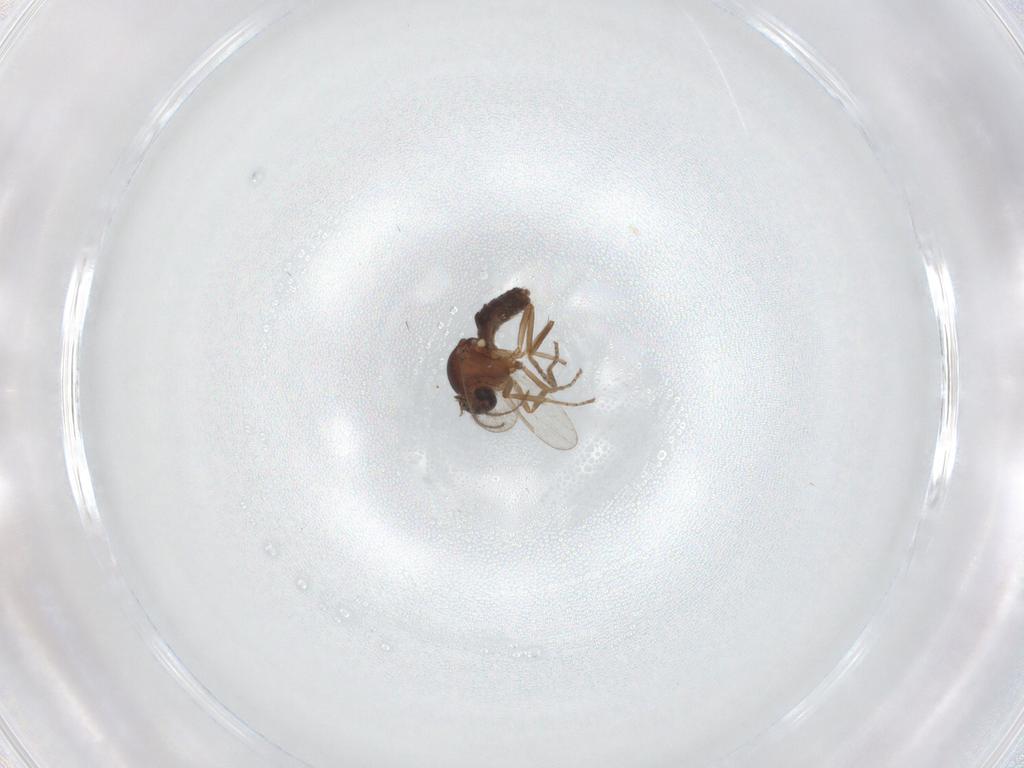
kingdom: Animalia
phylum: Arthropoda
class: Insecta
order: Diptera
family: Ceratopogonidae
